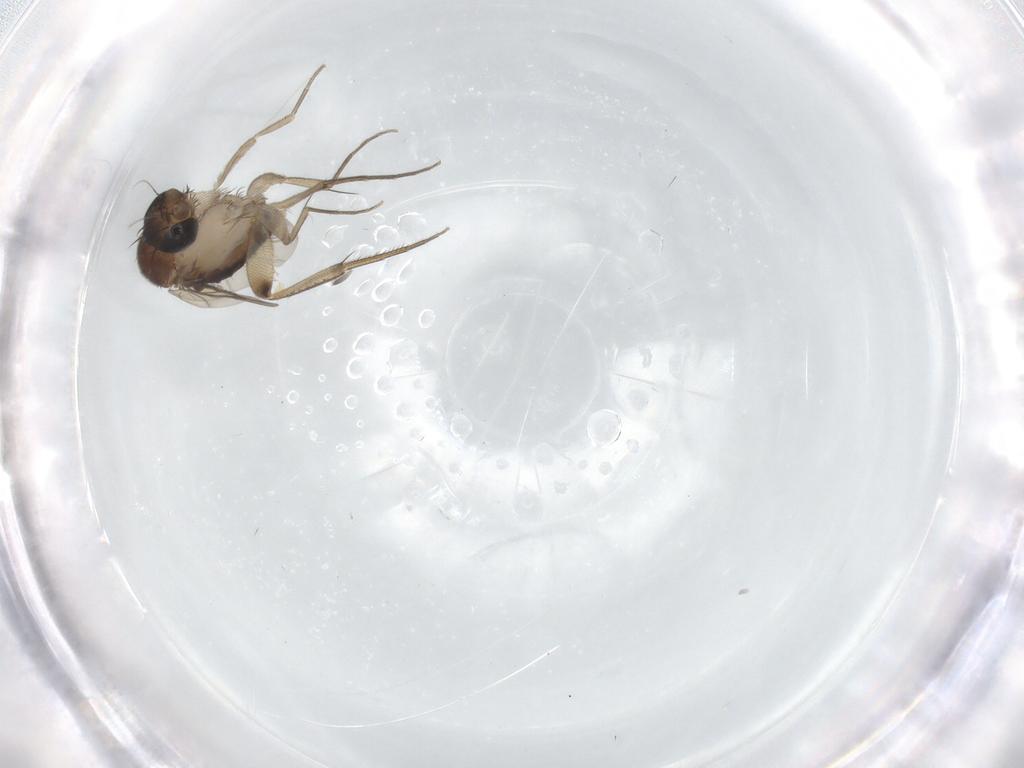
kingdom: Animalia
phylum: Arthropoda
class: Insecta
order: Diptera
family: Phoridae
